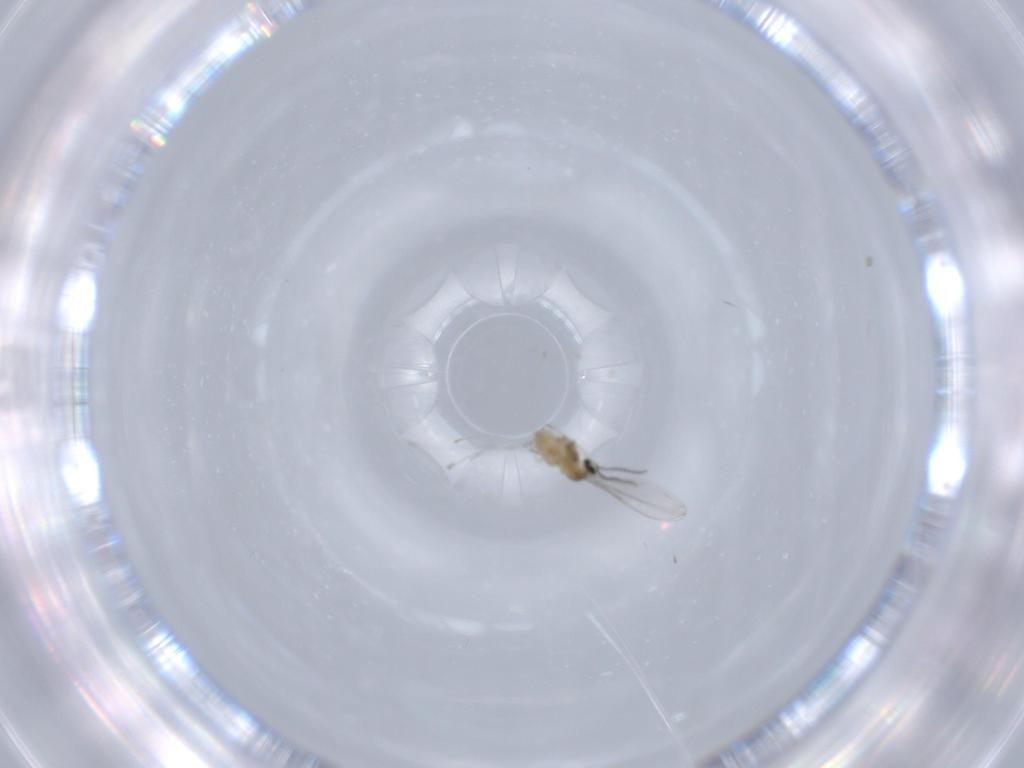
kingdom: Animalia
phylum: Arthropoda
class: Insecta
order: Diptera
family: Cecidomyiidae
